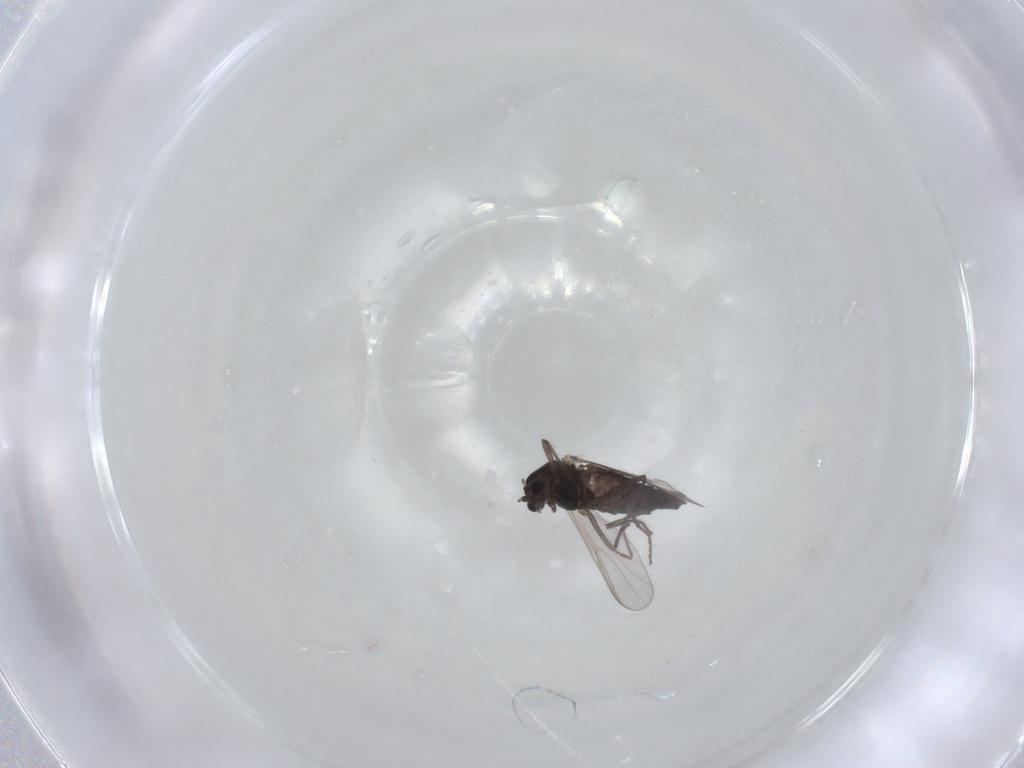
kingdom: Animalia
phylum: Arthropoda
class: Insecta
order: Diptera
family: Chironomidae
